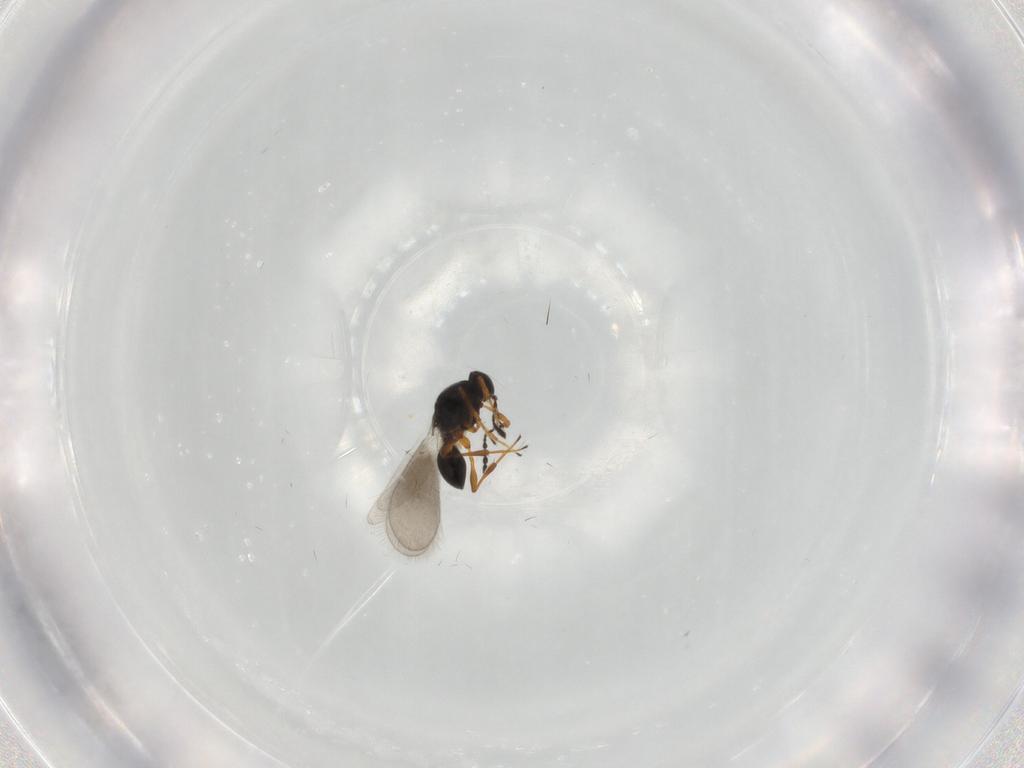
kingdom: Animalia
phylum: Arthropoda
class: Insecta
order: Hymenoptera
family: Platygastridae
